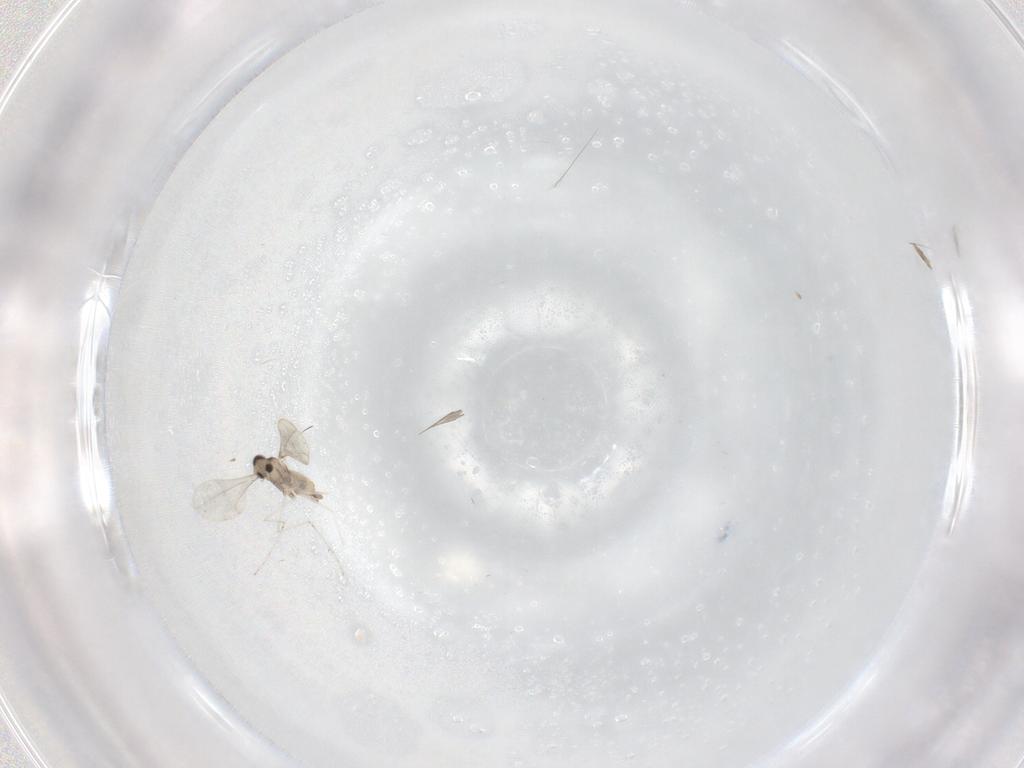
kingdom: Animalia
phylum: Arthropoda
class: Insecta
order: Diptera
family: Cecidomyiidae
